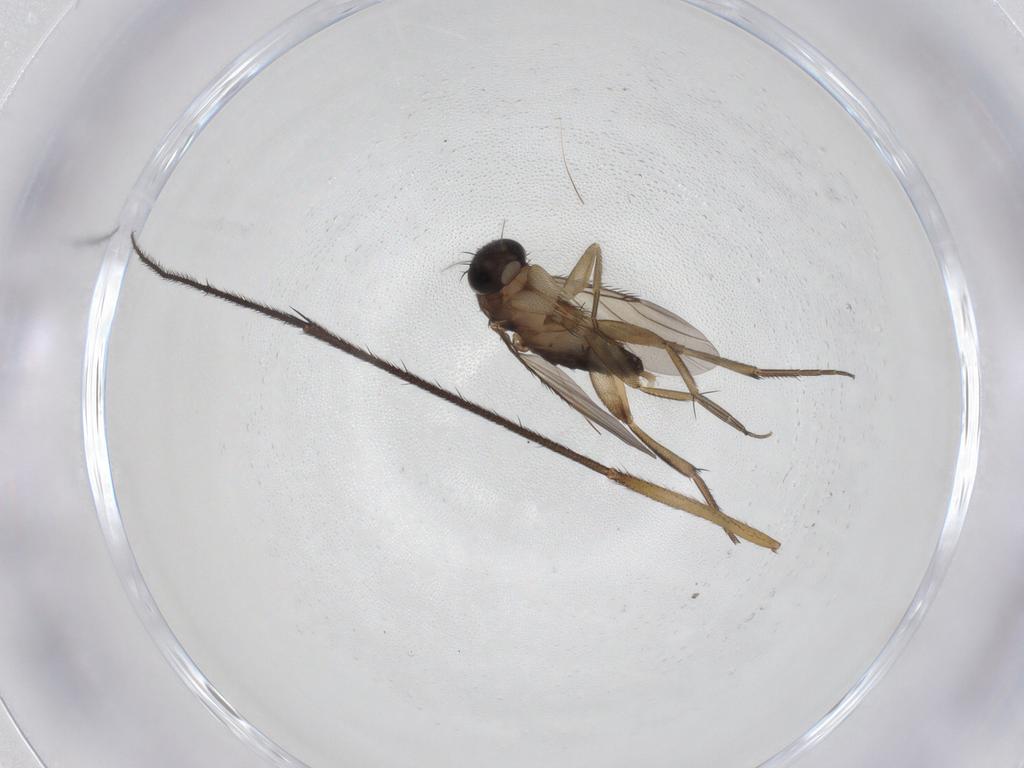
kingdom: Animalia
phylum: Arthropoda
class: Insecta
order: Diptera
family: Phoridae
